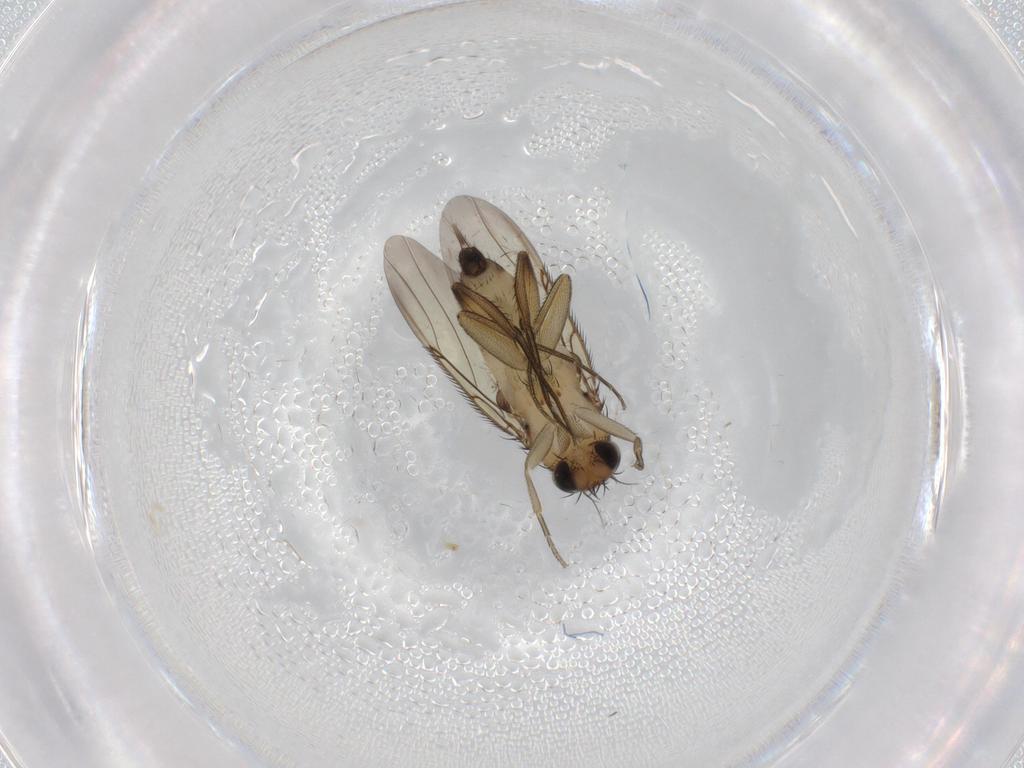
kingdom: Animalia
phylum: Arthropoda
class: Insecta
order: Diptera
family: Phoridae
